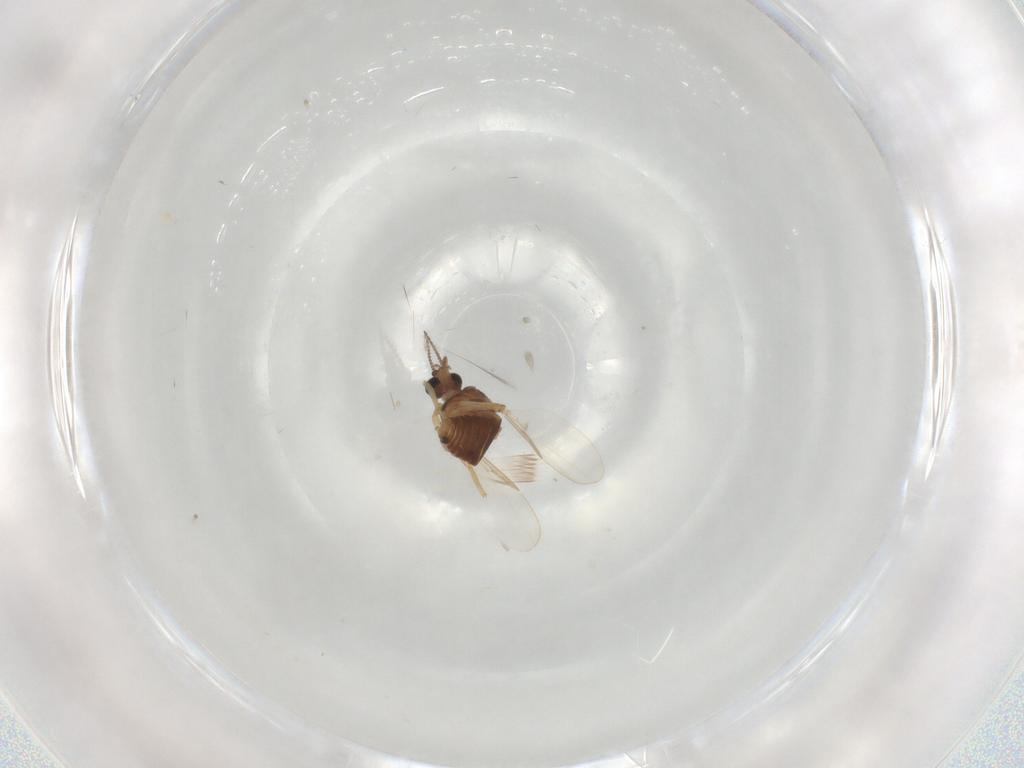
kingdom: Animalia
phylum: Arthropoda
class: Insecta
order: Diptera
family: Ceratopogonidae
